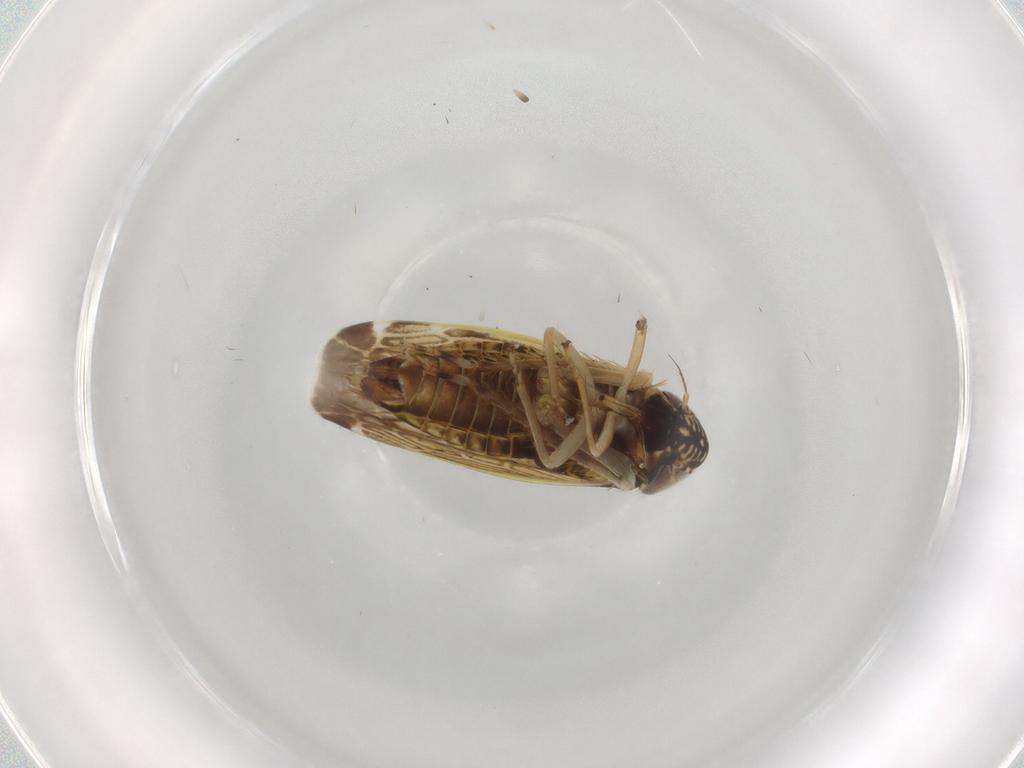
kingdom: Animalia
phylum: Arthropoda
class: Insecta
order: Hemiptera
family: Cicadellidae
